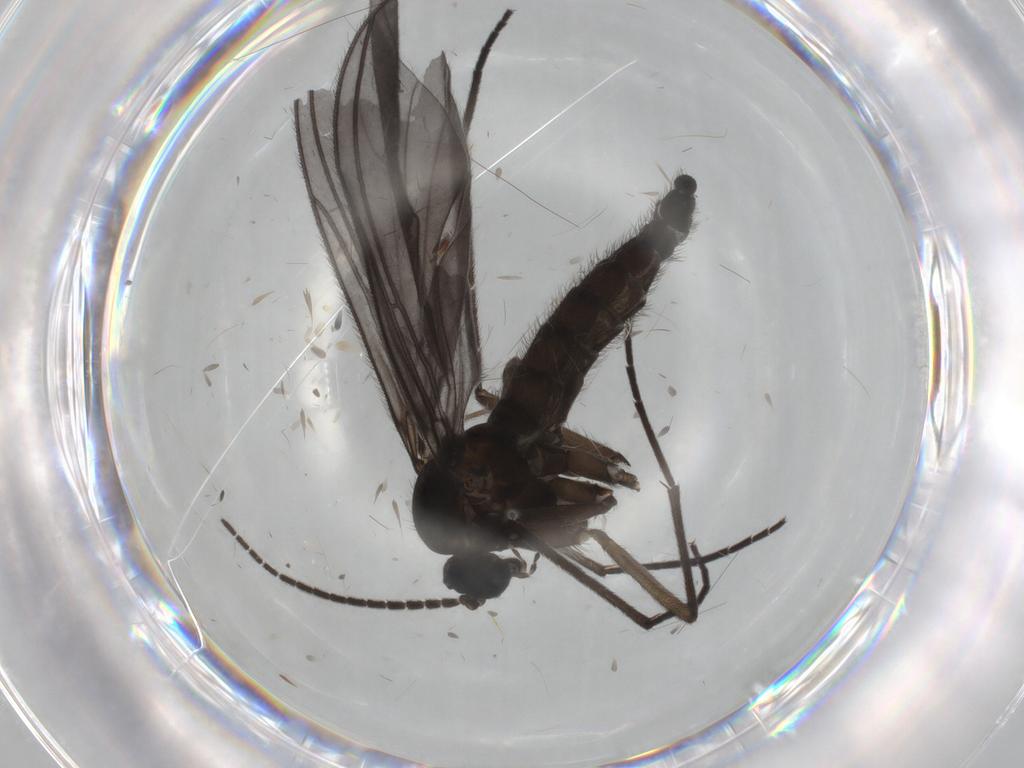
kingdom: Animalia
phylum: Arthropoda
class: Insecta
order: Diptera
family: Sciaridae
